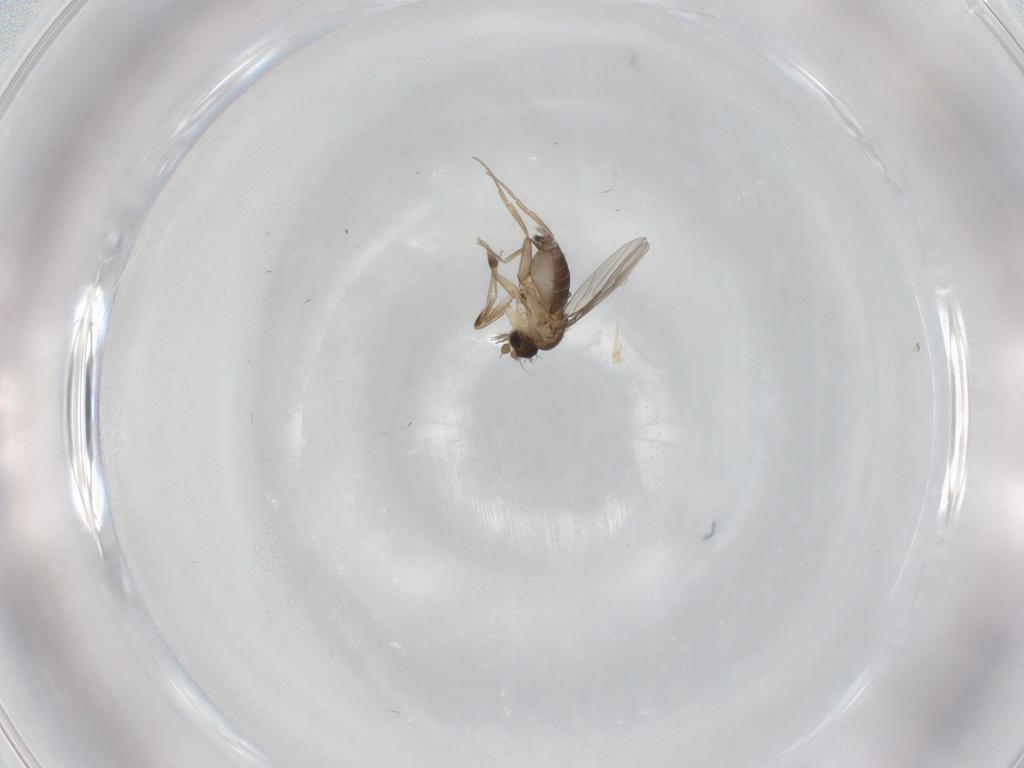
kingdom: Animalia
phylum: Arthropoda
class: Insecta
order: Diptera
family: Phoridae
